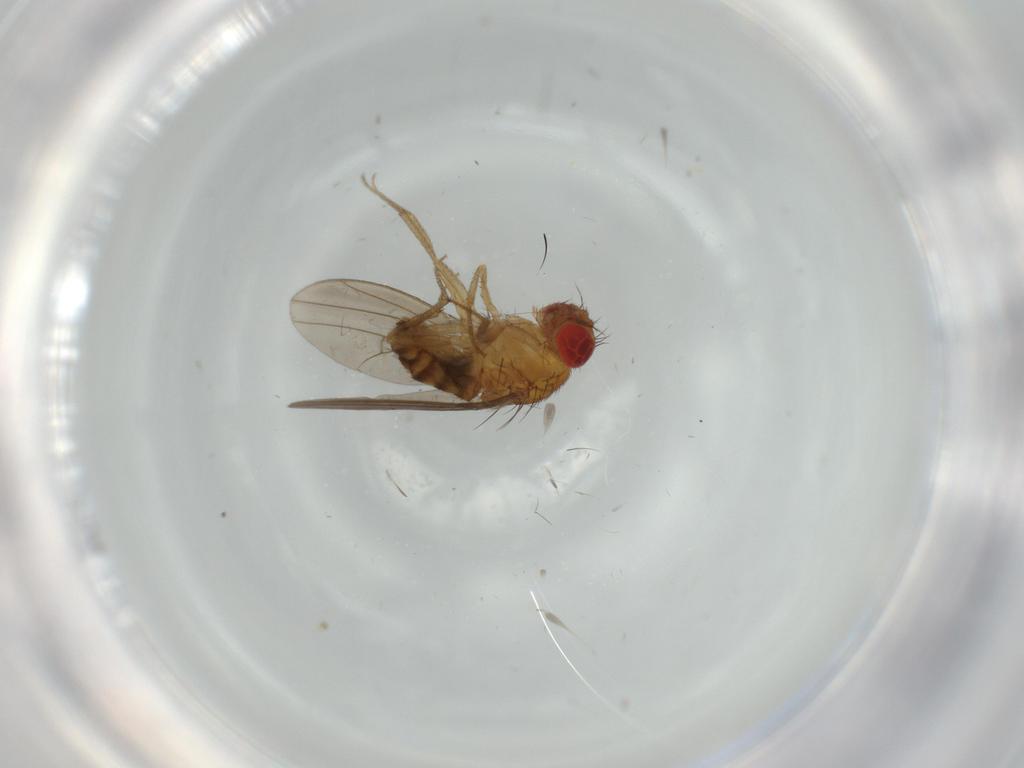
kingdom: Animalia
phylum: Arthropoda
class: Insecta
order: Diptera
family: Drosophilidae
